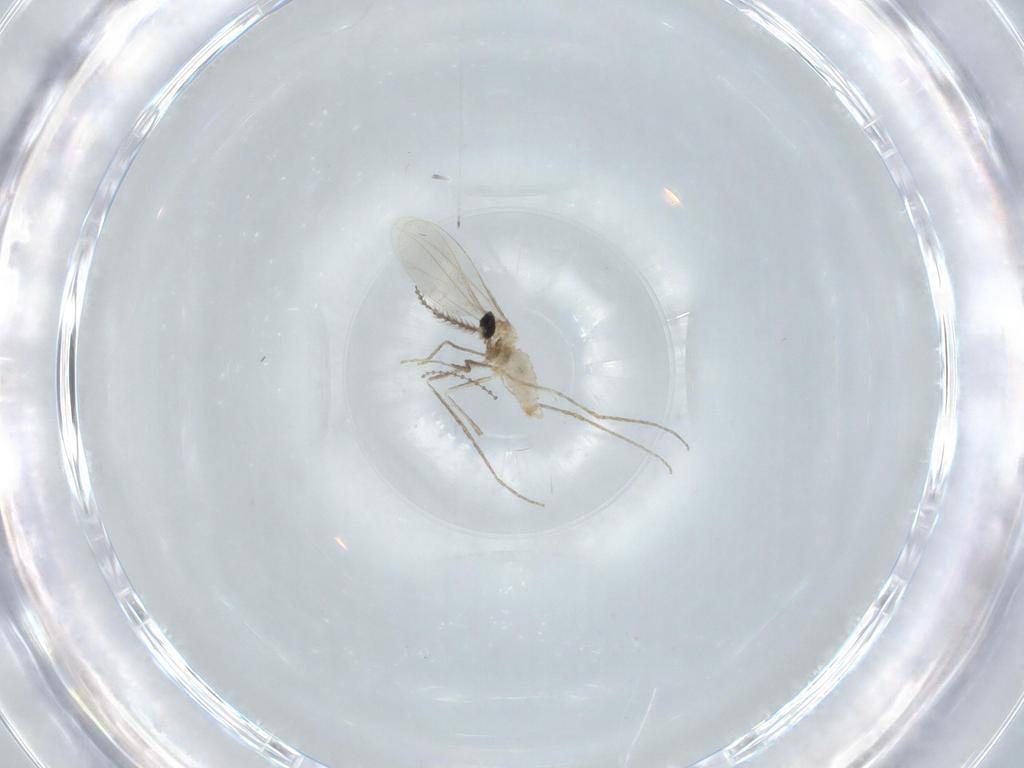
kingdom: Animalia
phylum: Arthropoda
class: Insecta
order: Diptera
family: Cecidomyiidae
